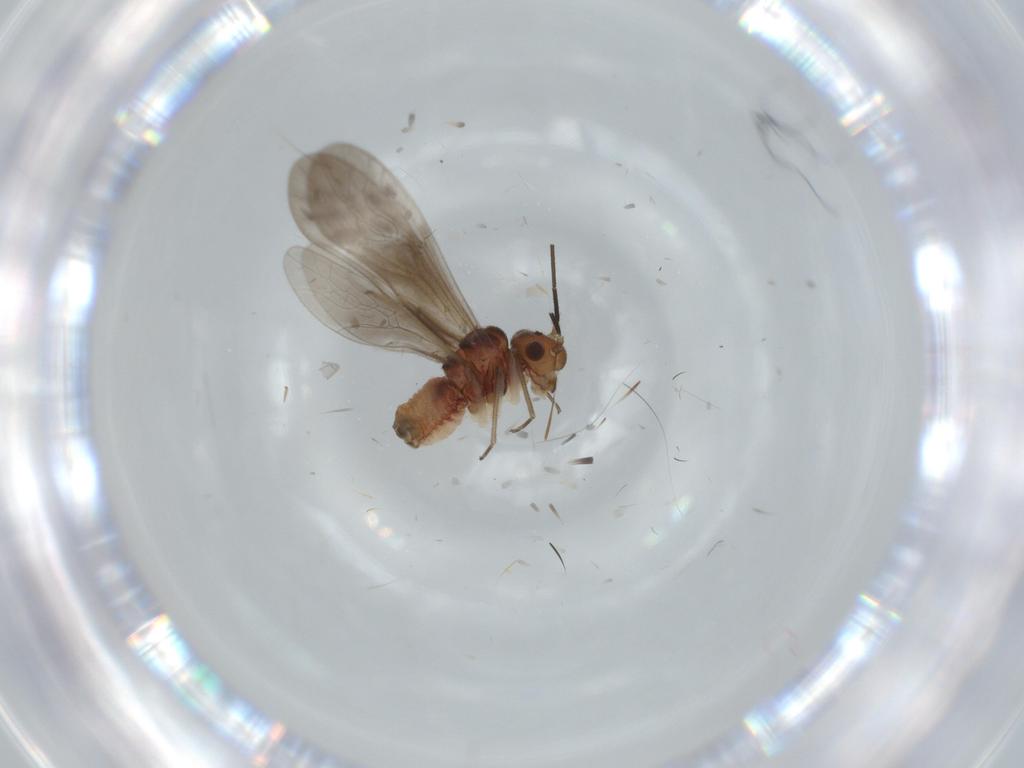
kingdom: Animalia
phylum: Arthropoda
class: Insecta
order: Psocodea
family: Caeciliusidae
